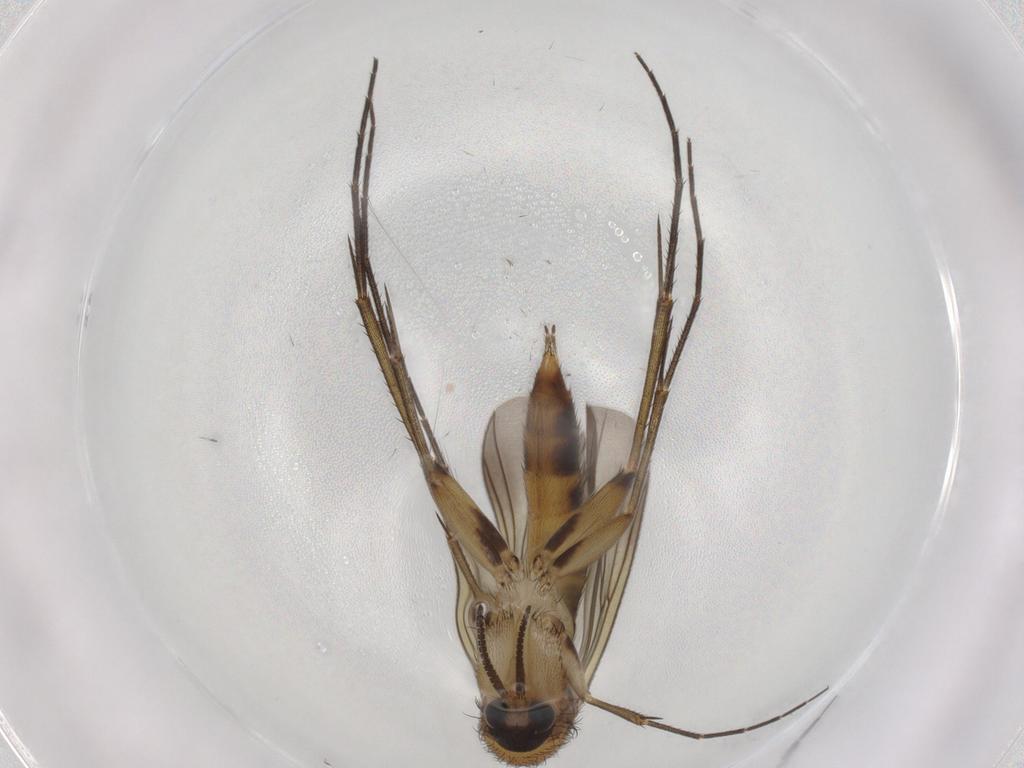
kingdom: Animalia
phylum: Arthropoda
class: Insecta
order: Diptera
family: Mycetophilidae
